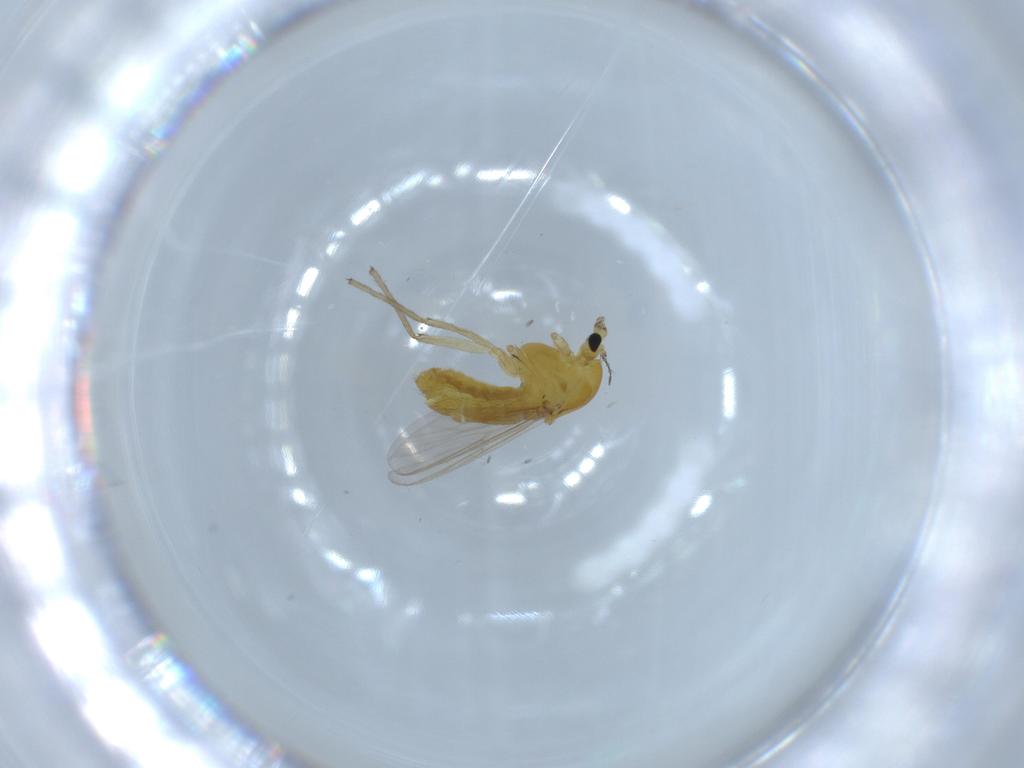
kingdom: Animalia
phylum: Arthropoda
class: Insecta
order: Diptera
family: Chironomidae
